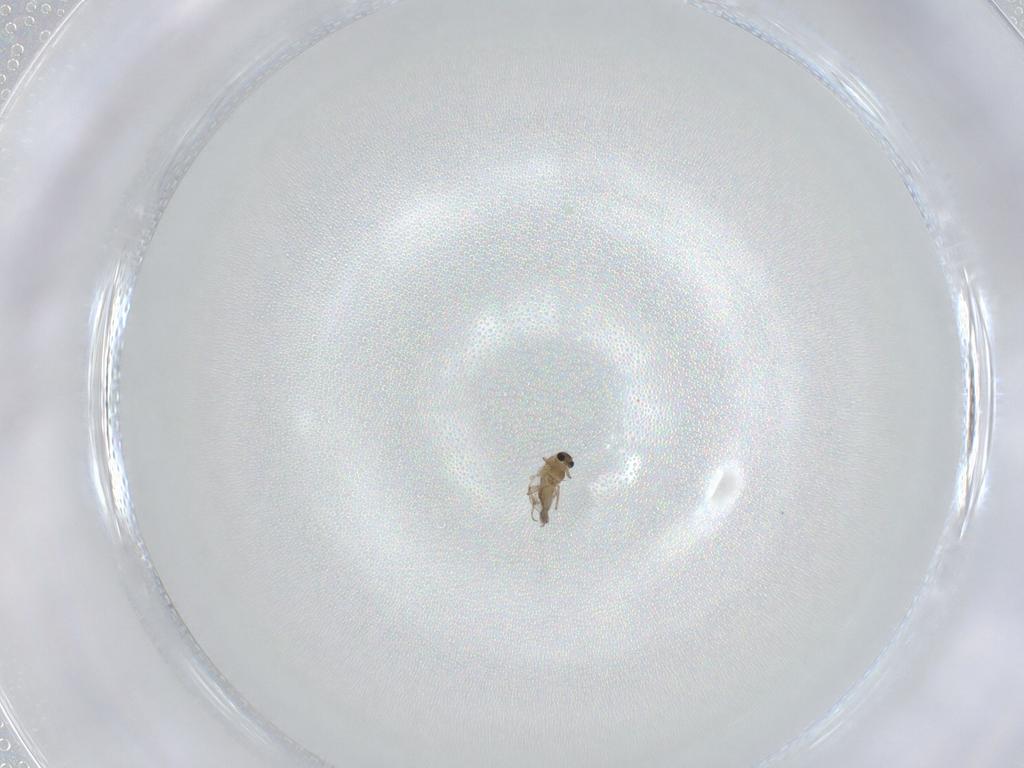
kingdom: Animalia
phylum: Arthropoda
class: Insecta
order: Diptera
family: Chironomidae
